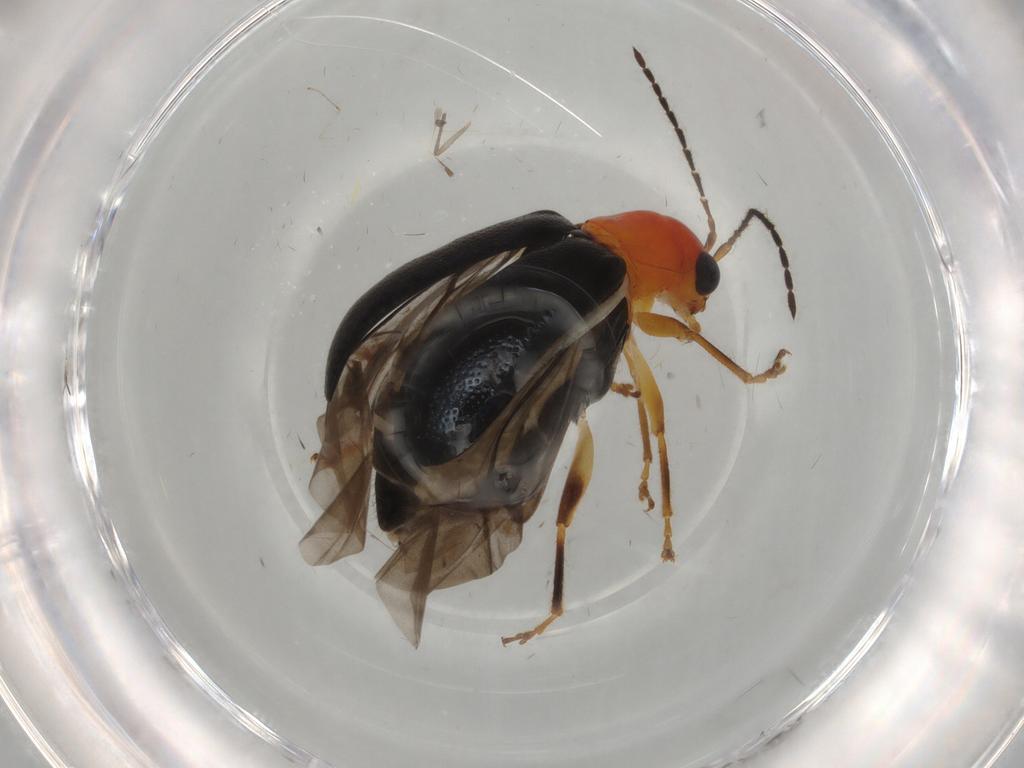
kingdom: Animalia
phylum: Arthropoda
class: Insecta
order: Coleoptera
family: Chrysomelidae
